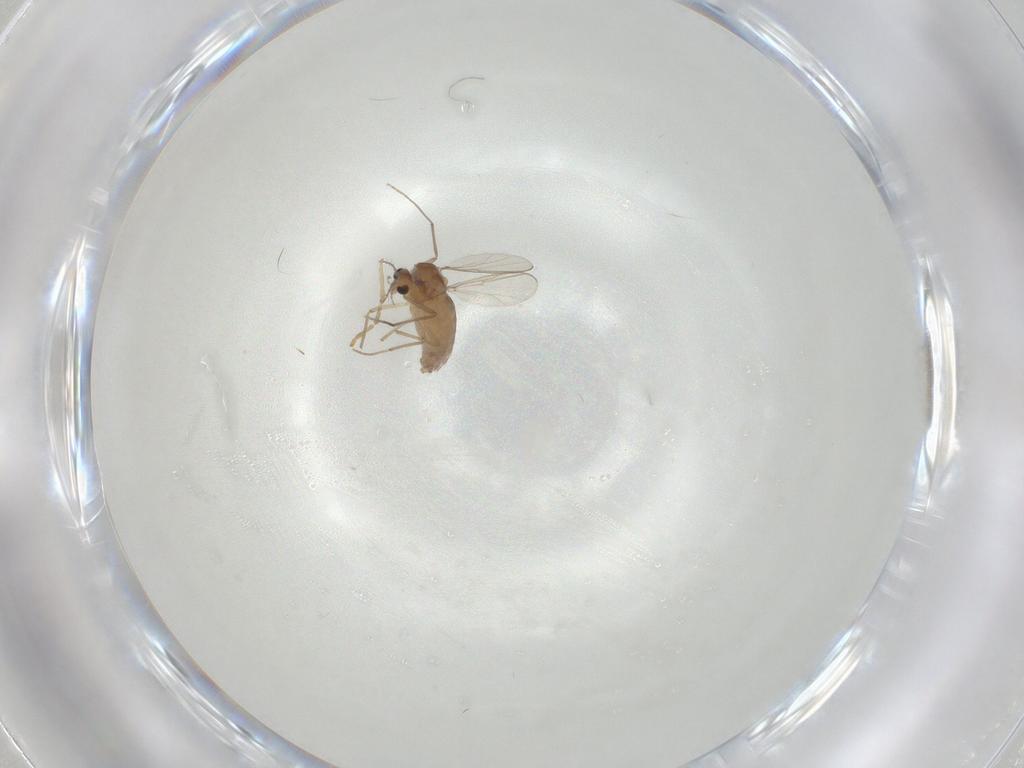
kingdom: Animalia
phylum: Arthropoda
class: Insecta
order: Diptera
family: Chironomidae
